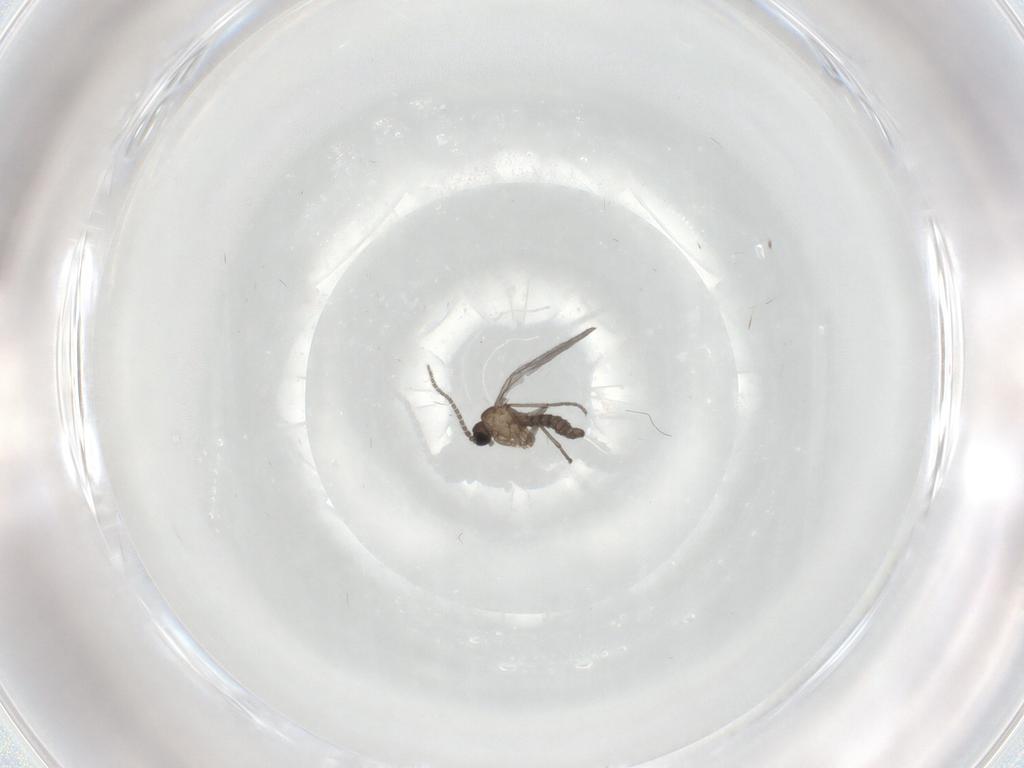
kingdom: Animalia
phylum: Arthropoda
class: Insecta
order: Diptera
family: Sciaridae
